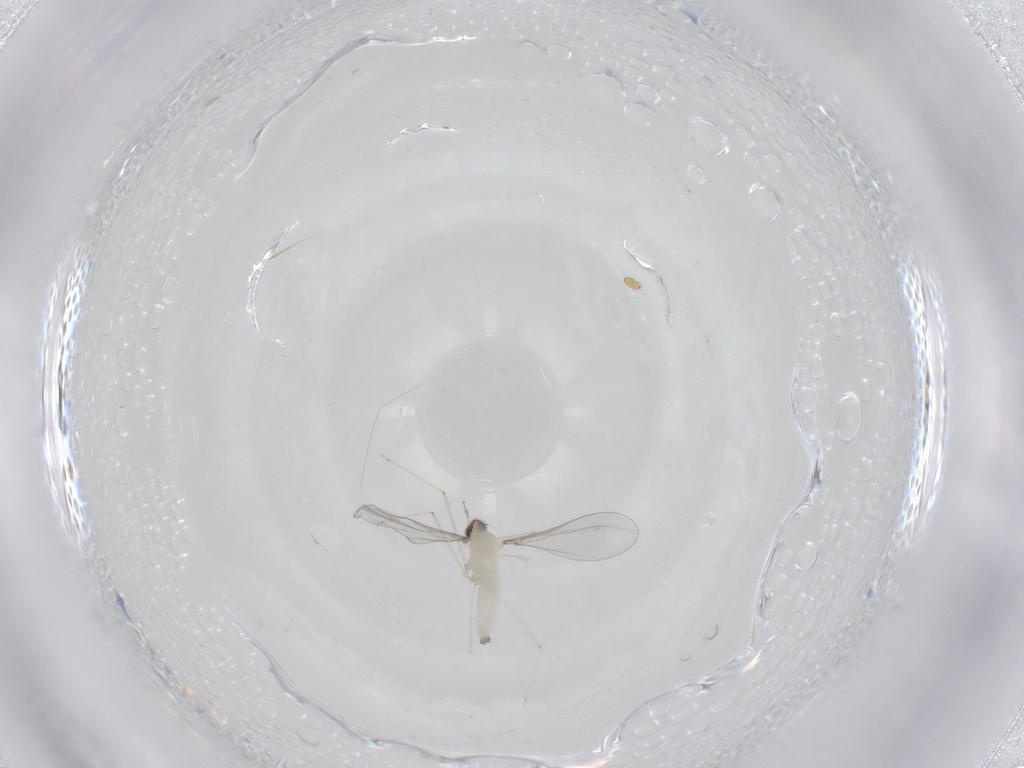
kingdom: Animalia
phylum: Arthropoda
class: Insecta
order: Diptera
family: Cecidomyiidae
